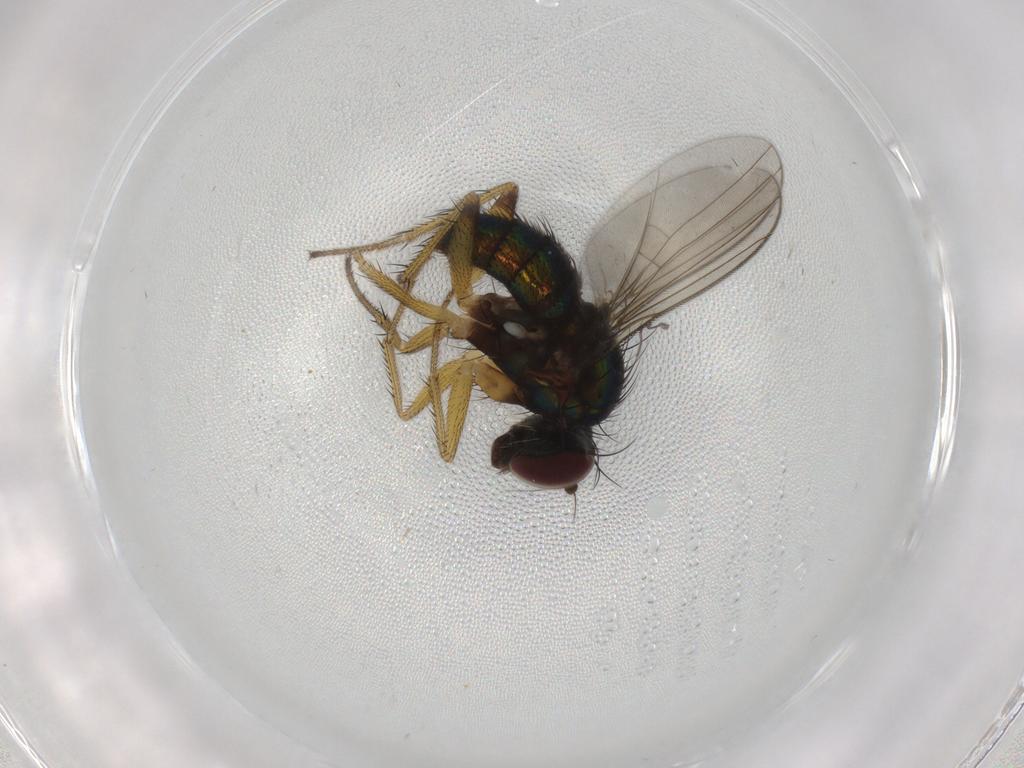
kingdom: Animalia
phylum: Arthropoda
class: Insecta
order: Diptera
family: Dolichopodidae
